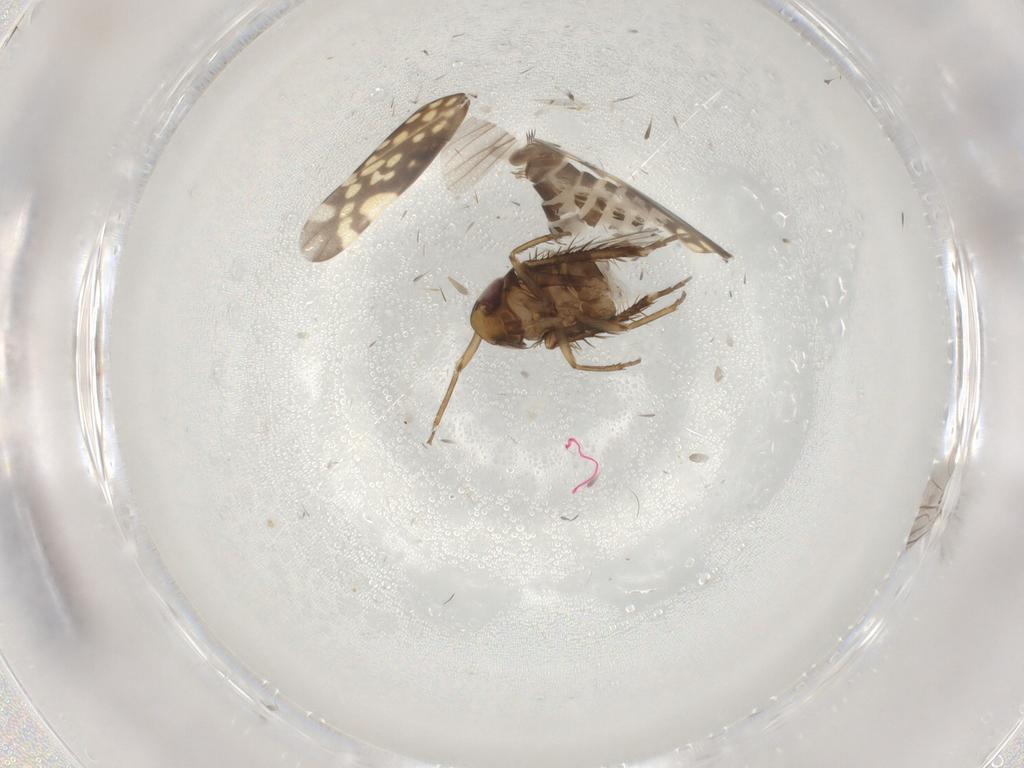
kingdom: Animalia
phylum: Arthropoda
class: Insecta
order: Hemiptera
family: Cicadellidae
